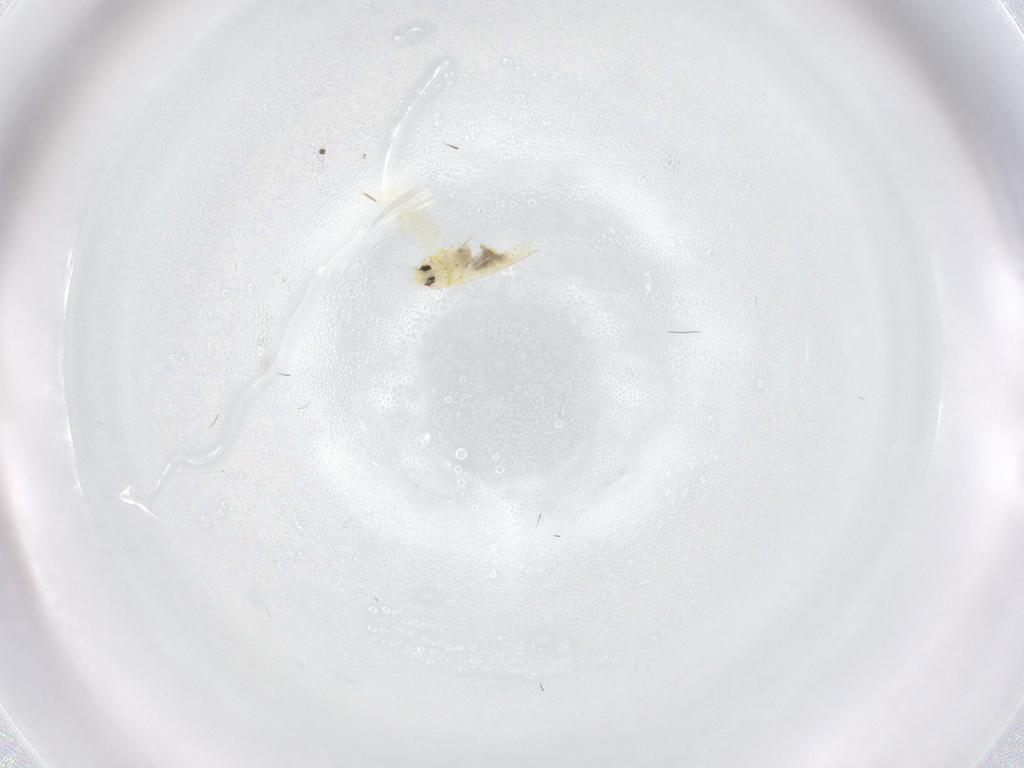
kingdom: Animalia
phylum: Arthropoda
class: Insecta
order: Hemiptera
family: Aleyrodidae
